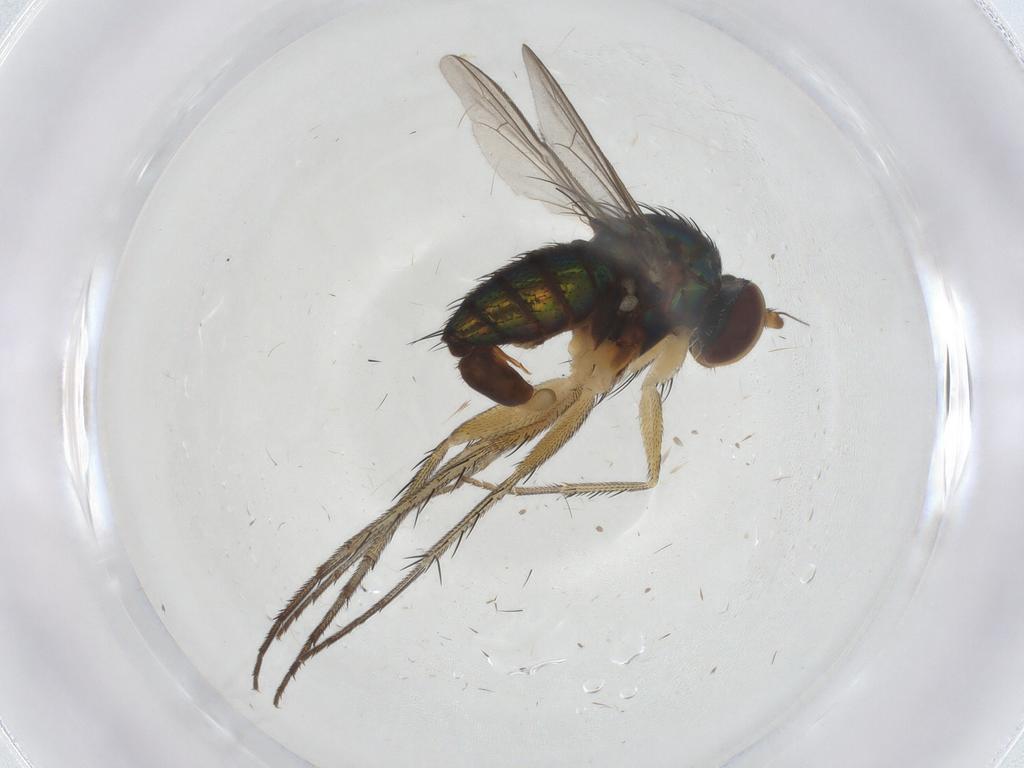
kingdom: Animalia
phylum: Arthropoda
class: Insecta
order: Diptera
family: Dolichopodidae
